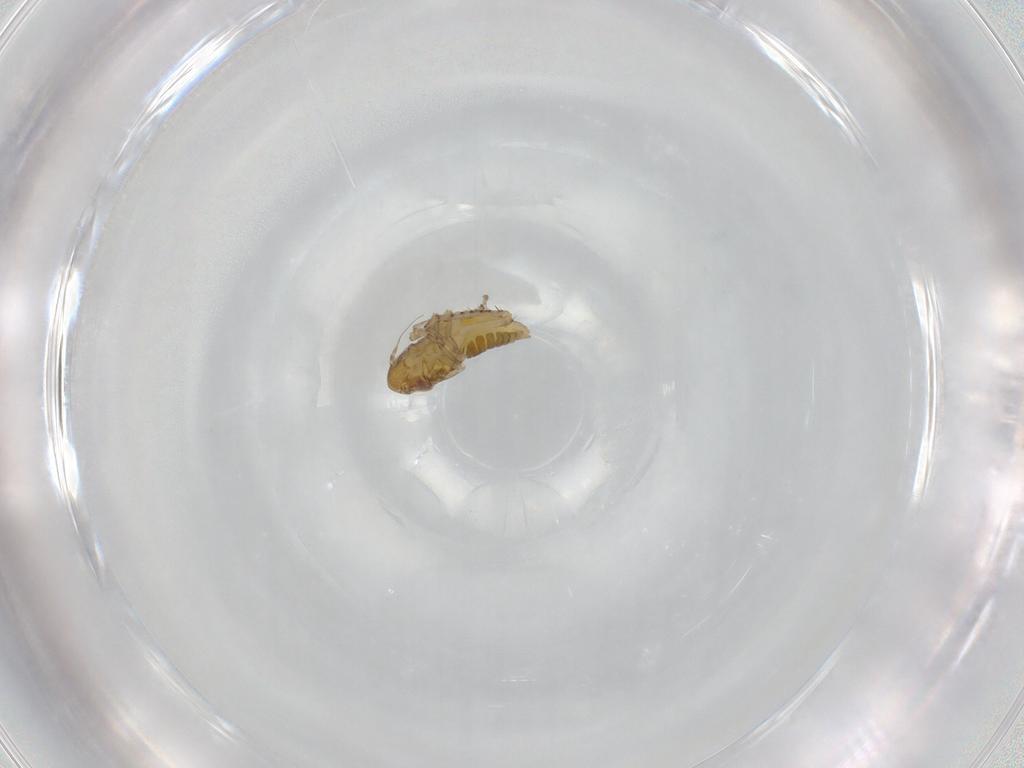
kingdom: Animalia
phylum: Arthropoda
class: Insecta
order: Hemiptera
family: Cicadellidae
